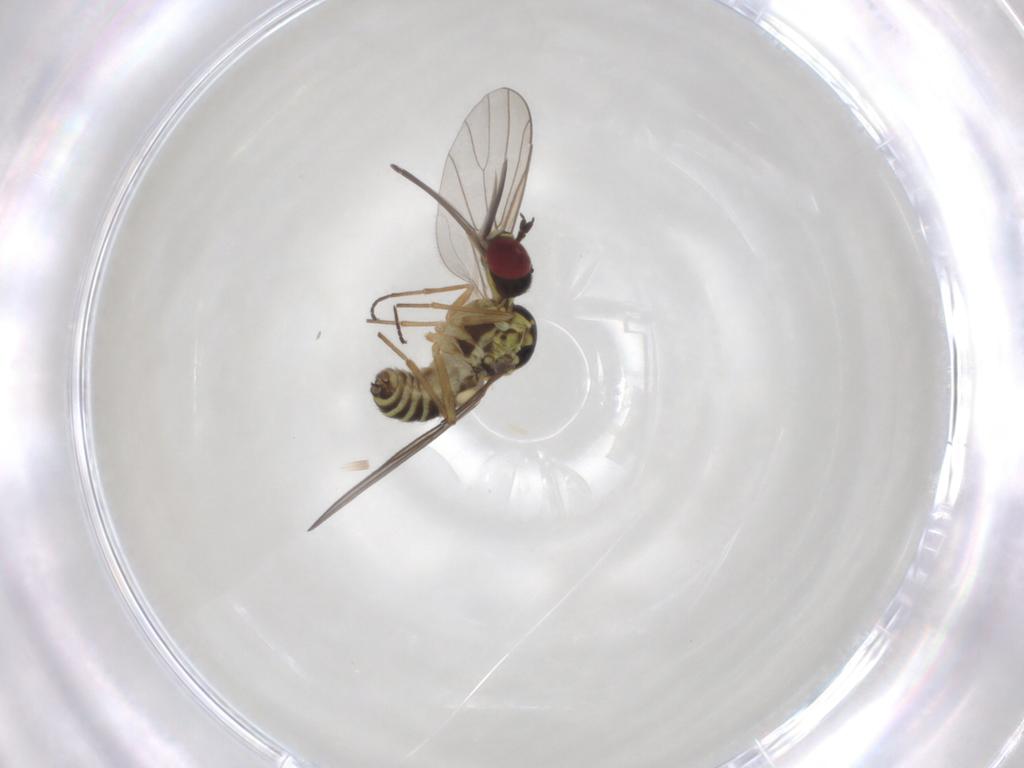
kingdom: Animalia
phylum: Arthropoda
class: Insecta
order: Diptera
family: Mythicomyiidae
